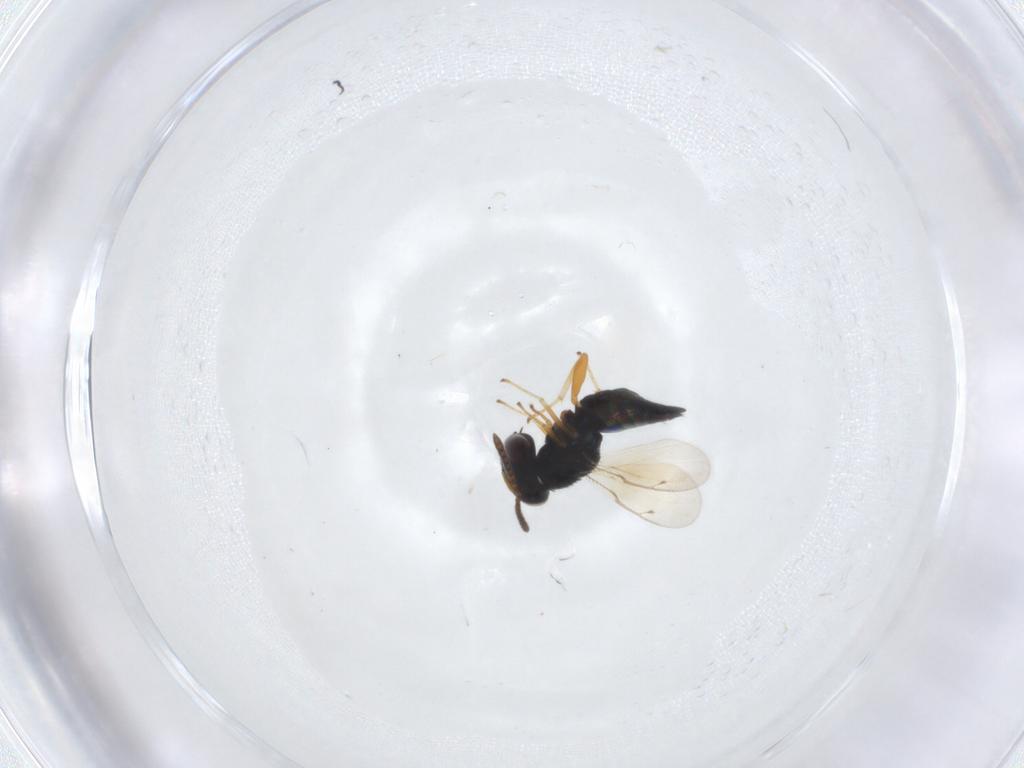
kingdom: Animalia
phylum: Arthropoda
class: Insecta
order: Hymenoptera
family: Pteromalidae
